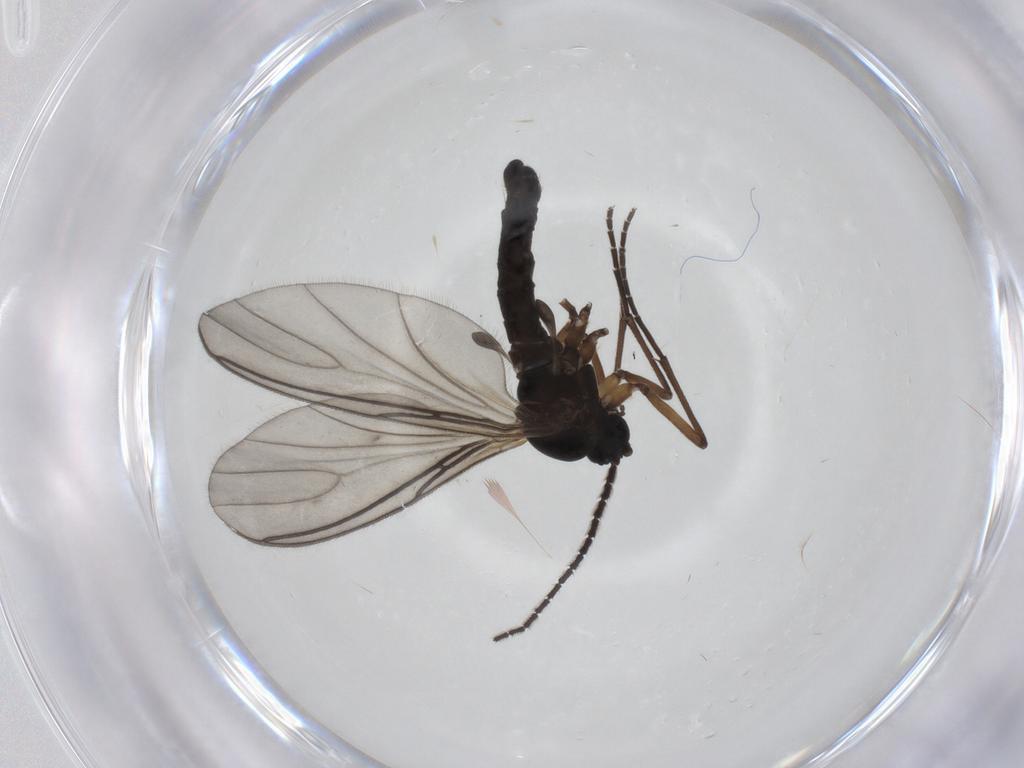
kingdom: Animalia
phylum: Arthropoda
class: Insecta
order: Diptera
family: Sciaridae
